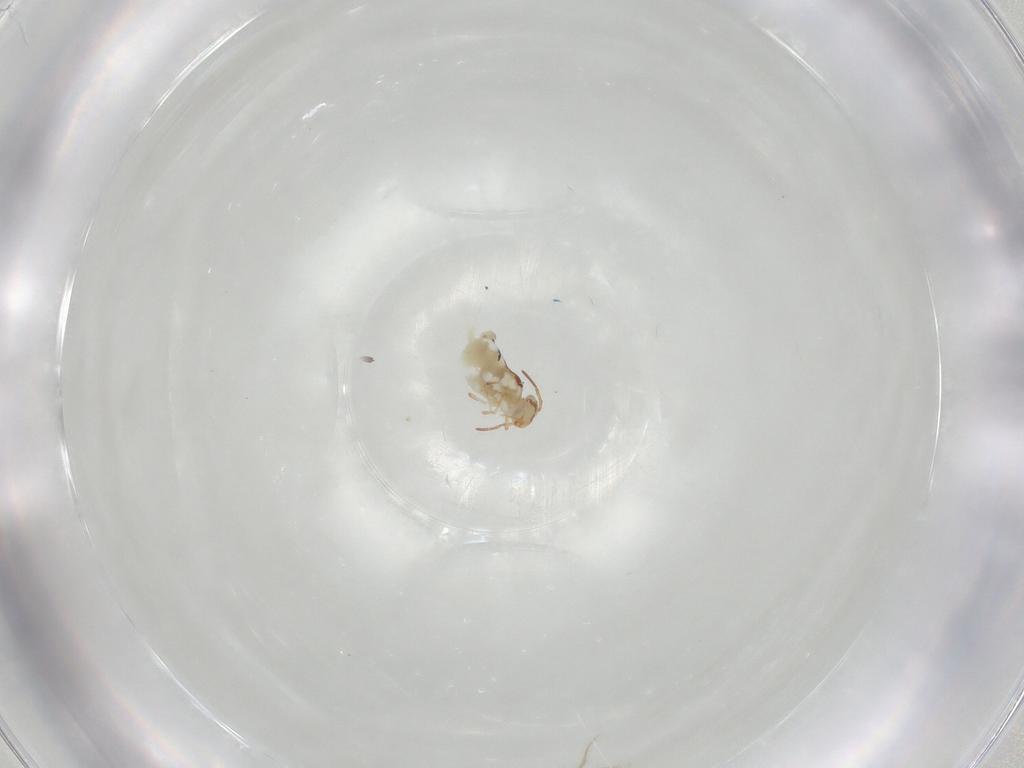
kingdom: Animalia
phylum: Arthropoda
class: Collembola
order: Symphypleona
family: Bourletiellidae
